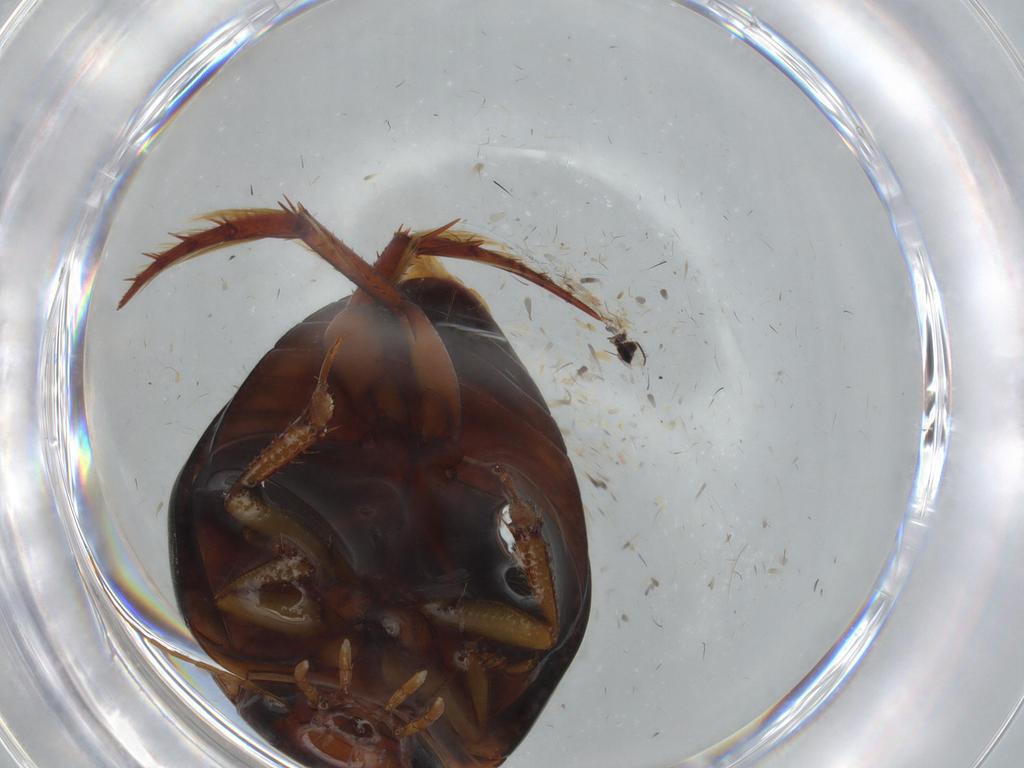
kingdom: Animalia
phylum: Arthropoda
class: Insecta
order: Coleoptera
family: Dytiscidae
